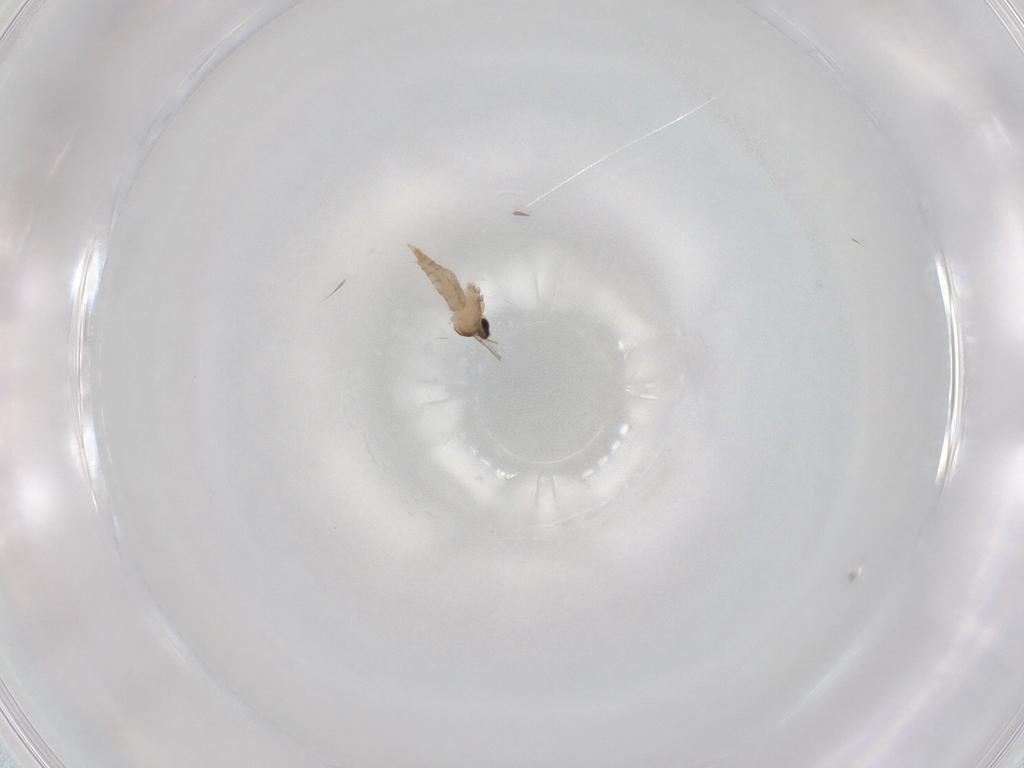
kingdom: Animalia
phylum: Arthropoda
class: Insecta
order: Diptera
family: Cecidomyiidae
